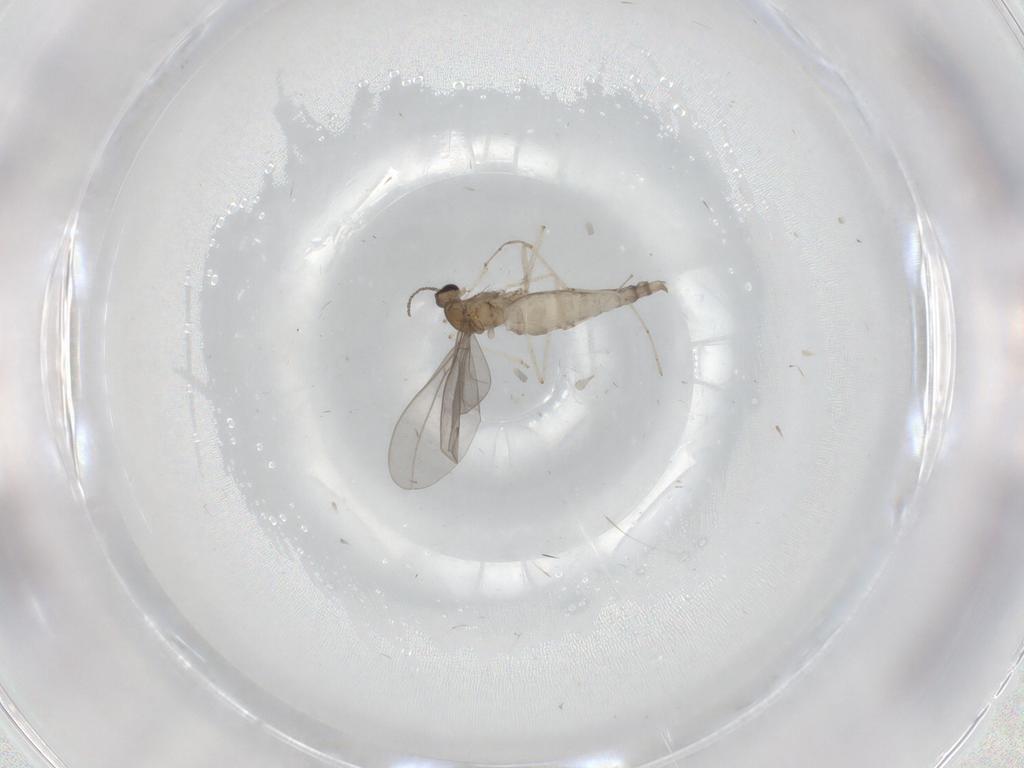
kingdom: Animalia
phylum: Arthropoda
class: Insecta
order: Diptera
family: Cecidomyiidae
